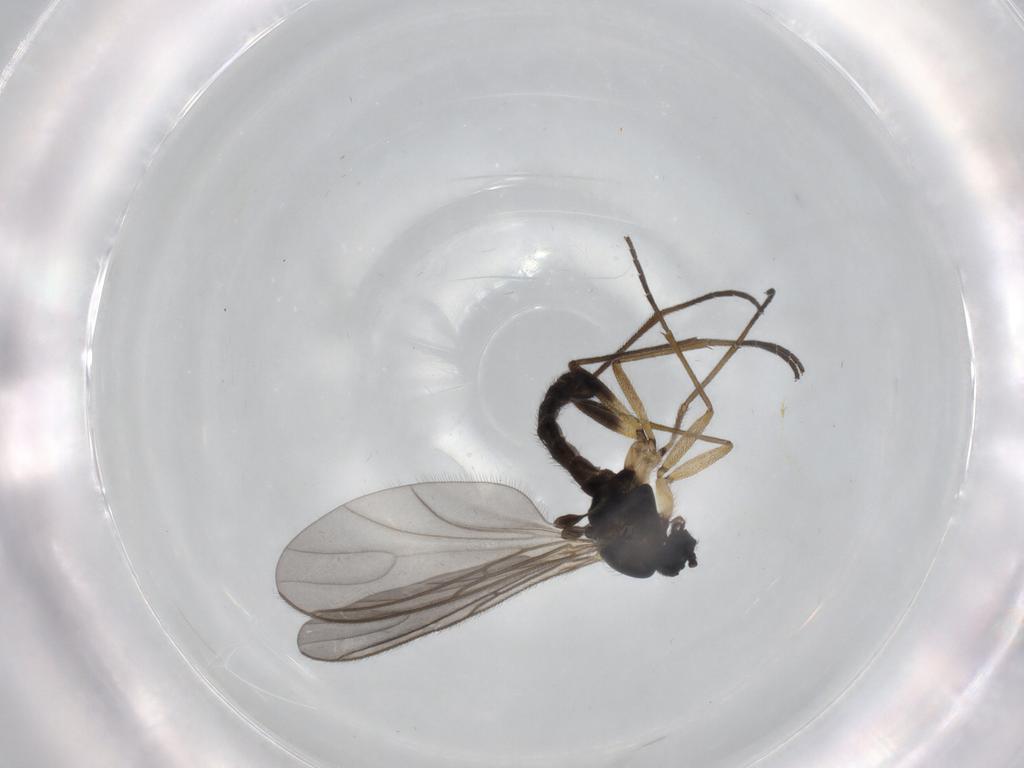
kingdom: Animalia
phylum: Arthropoda
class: Insecta
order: Diptera
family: Sciaridae
